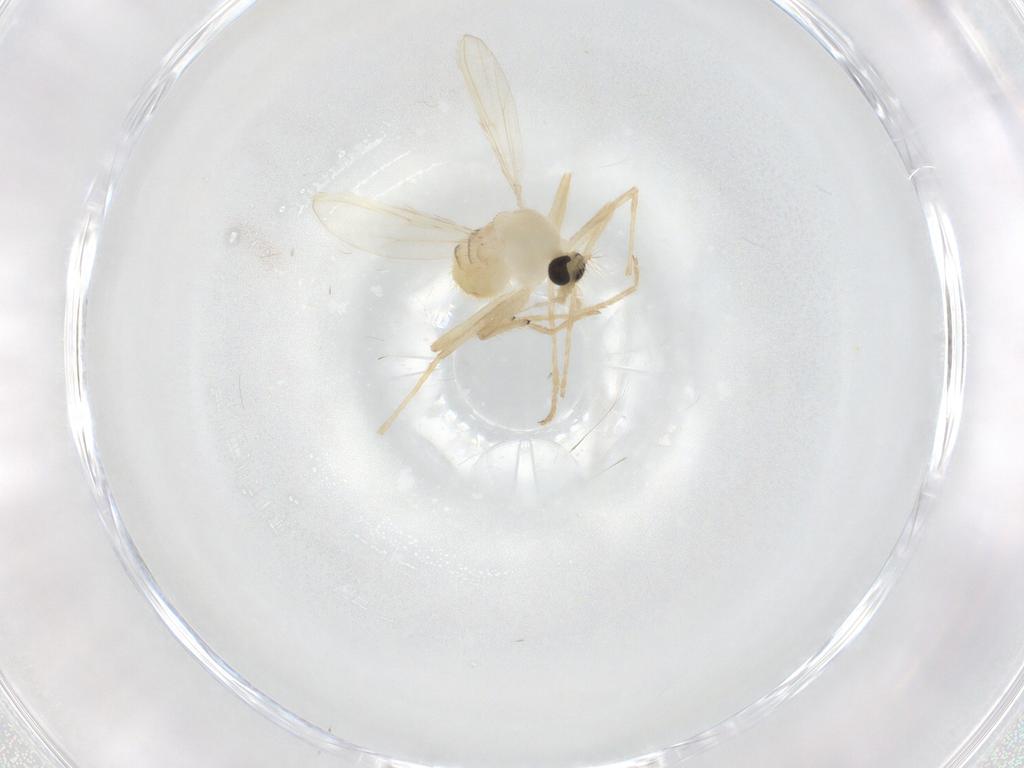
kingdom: Animalia
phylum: Arthropoda
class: Insecta
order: Diptera
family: Chironomidae
